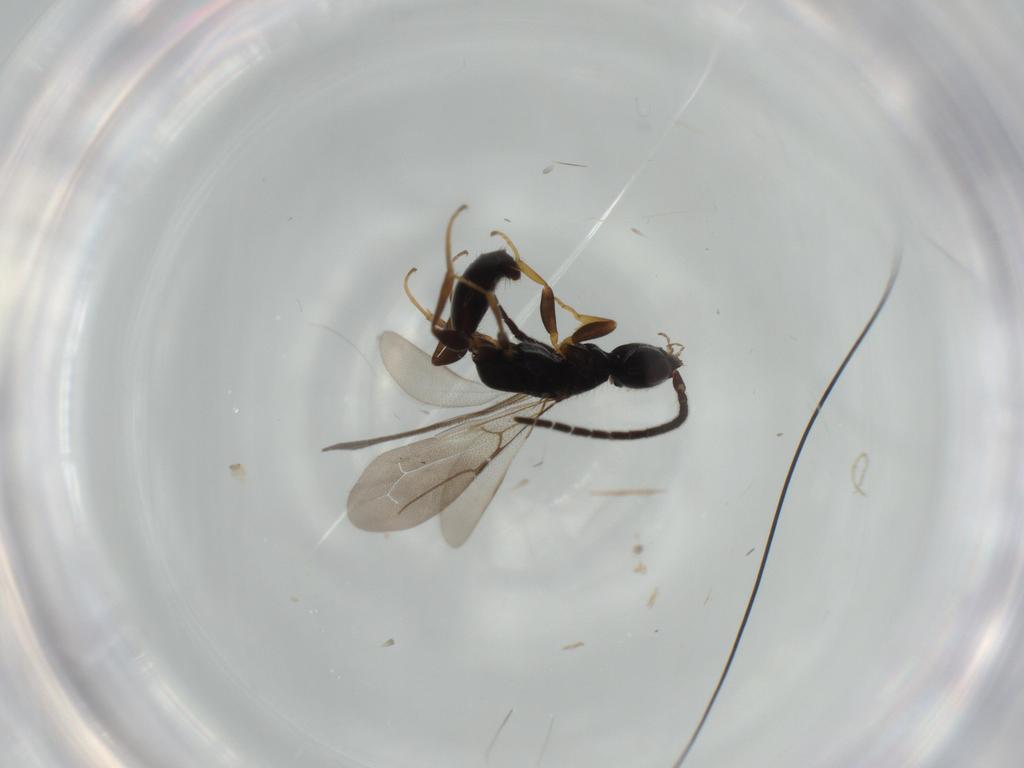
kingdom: Animalia
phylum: Arthropoda
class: Insecta
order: Hymenoptera
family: Bethylidae
